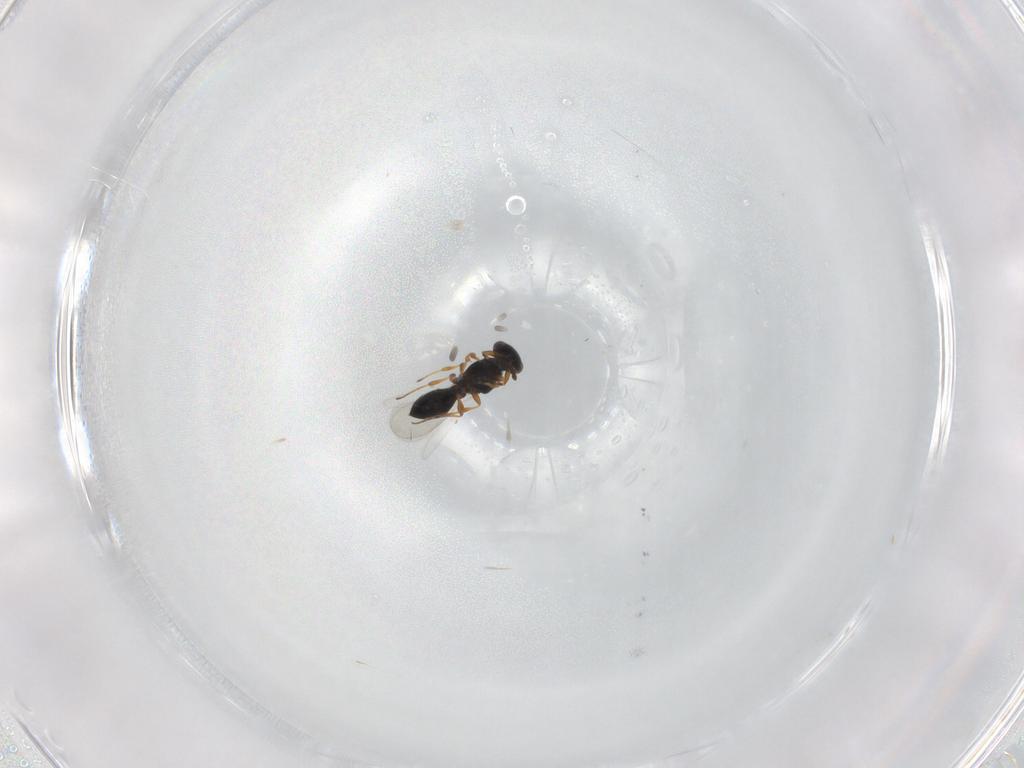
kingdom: Animalia
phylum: Arthropoda
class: Insecta
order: Hymenoptera
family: Platygastridae
